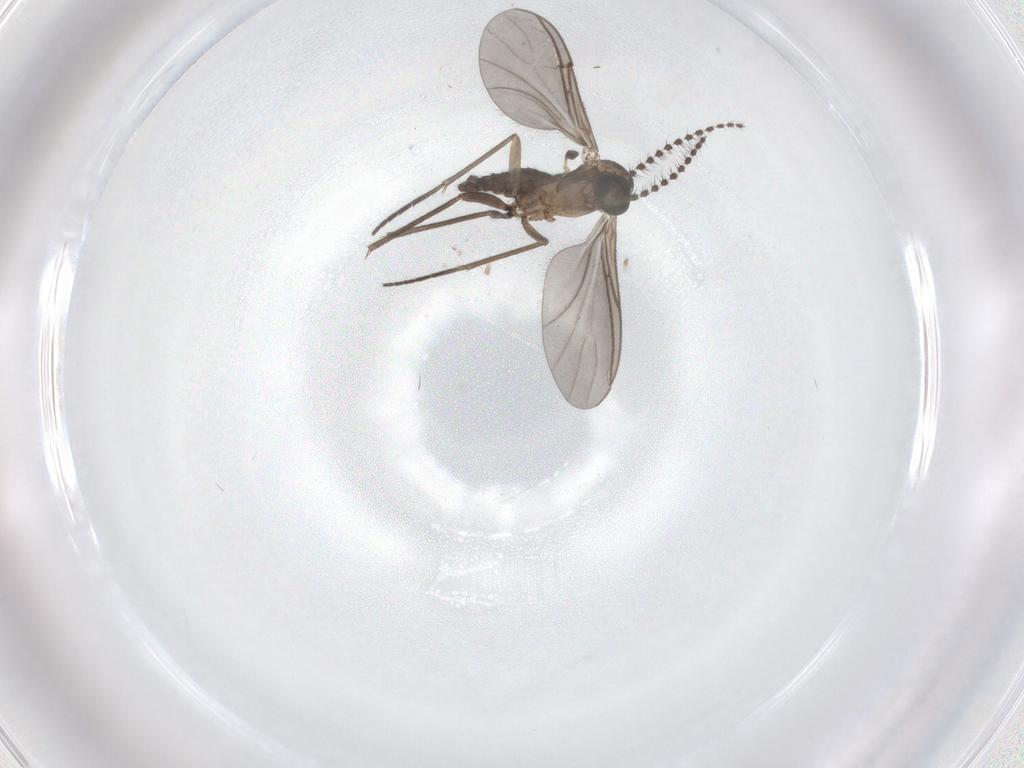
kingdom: Animalia
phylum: Arthropoda
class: Insecta
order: Diptera
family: Sciaridae
